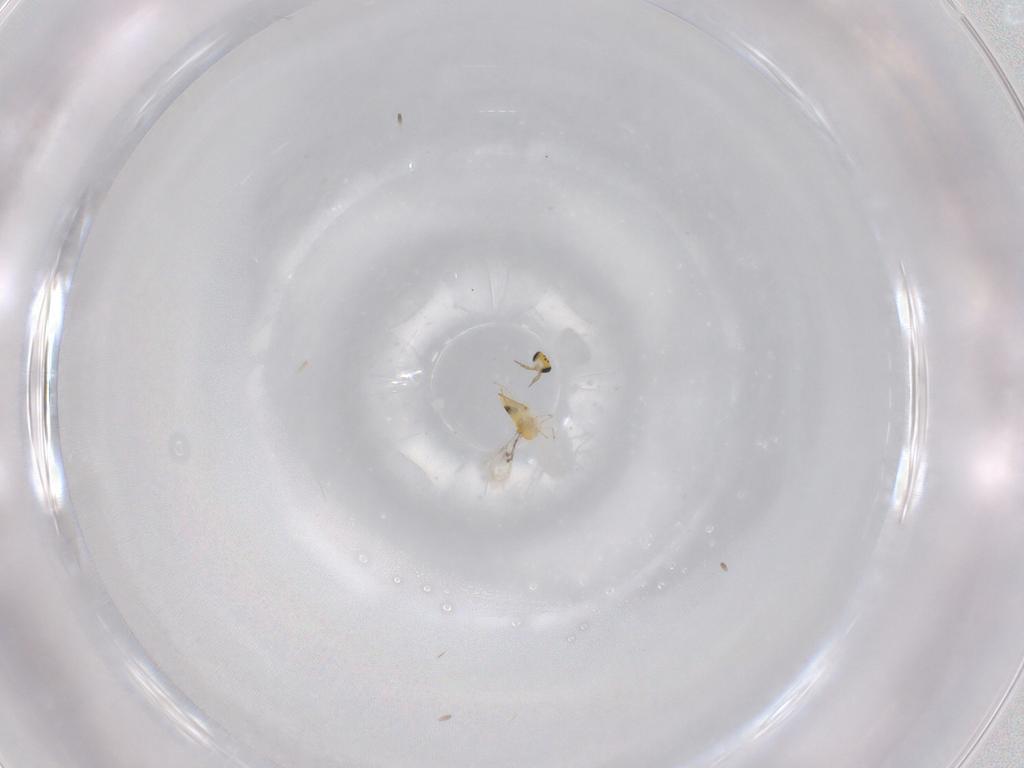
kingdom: Animalia
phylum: Arthropoda
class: Insecta
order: Hymenoptera
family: Trichogrammatidae
